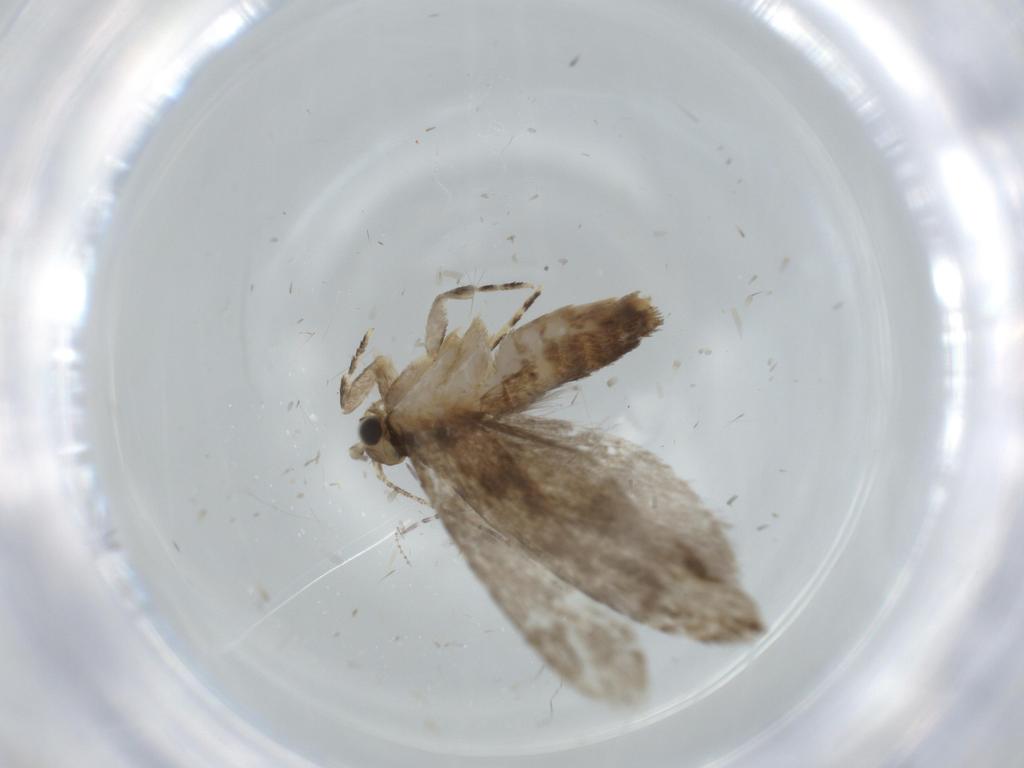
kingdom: Animalia
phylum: Arthropoda
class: Insecta
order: Lepidoptera
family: Tineidae
